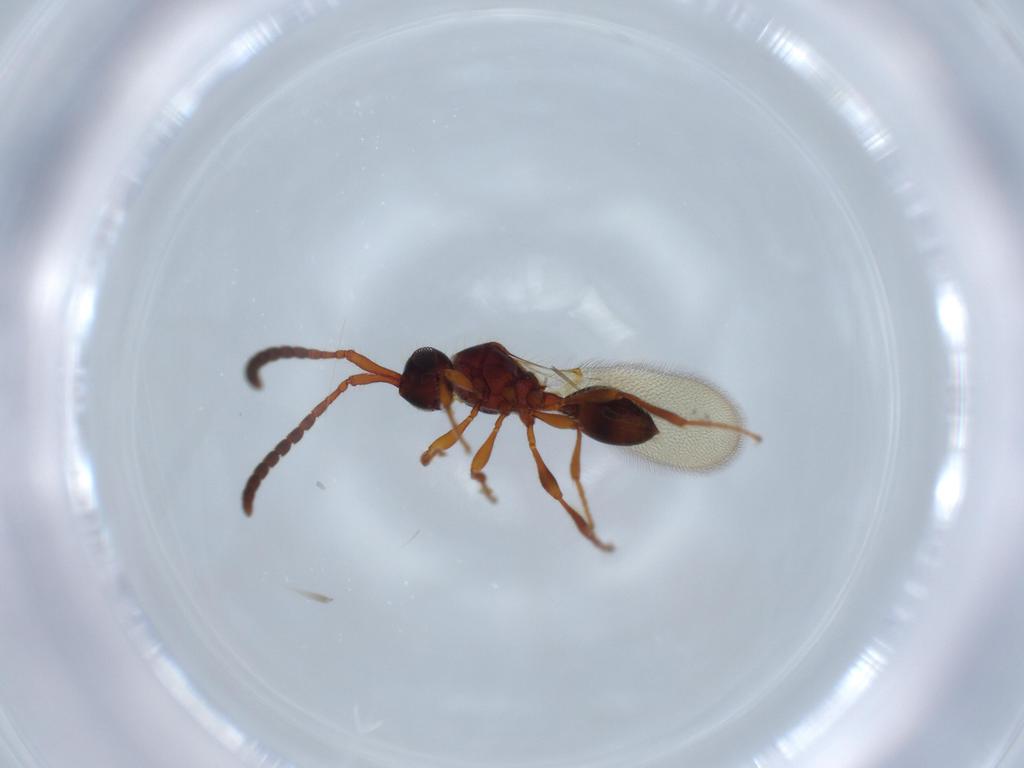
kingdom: Animalia
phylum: Arthropoda
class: Insecta
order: Hymenoptera
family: Diapriidae
